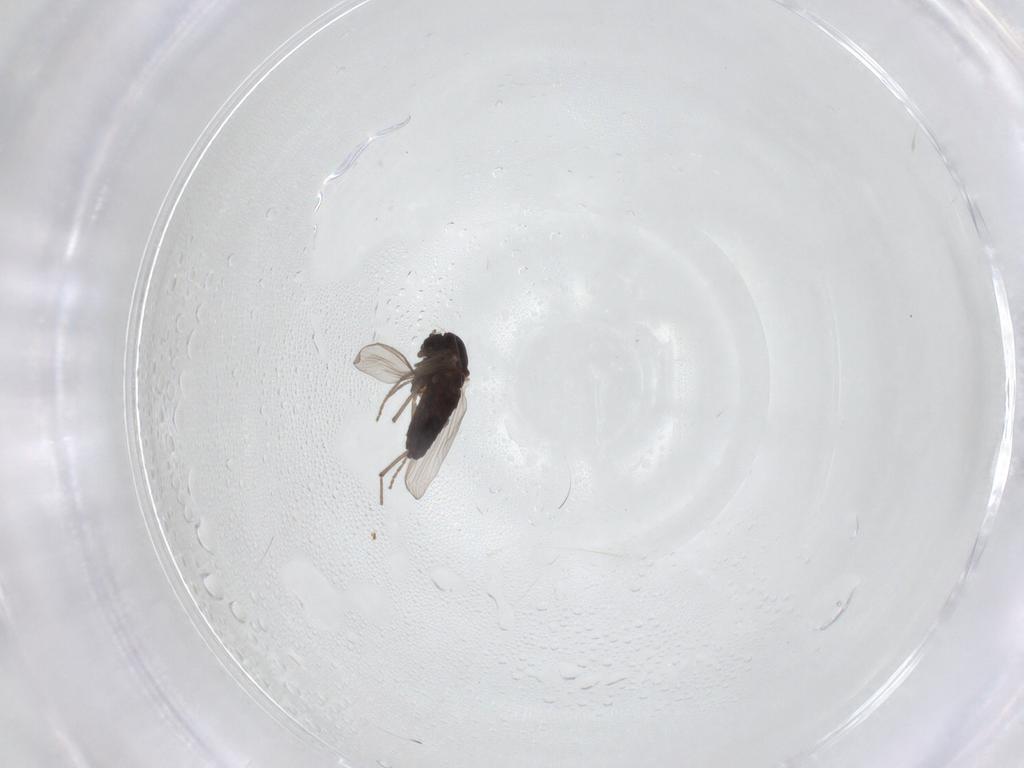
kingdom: Animalia
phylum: Arthropoda
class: Insecta
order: Diptera
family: Chironomidae
